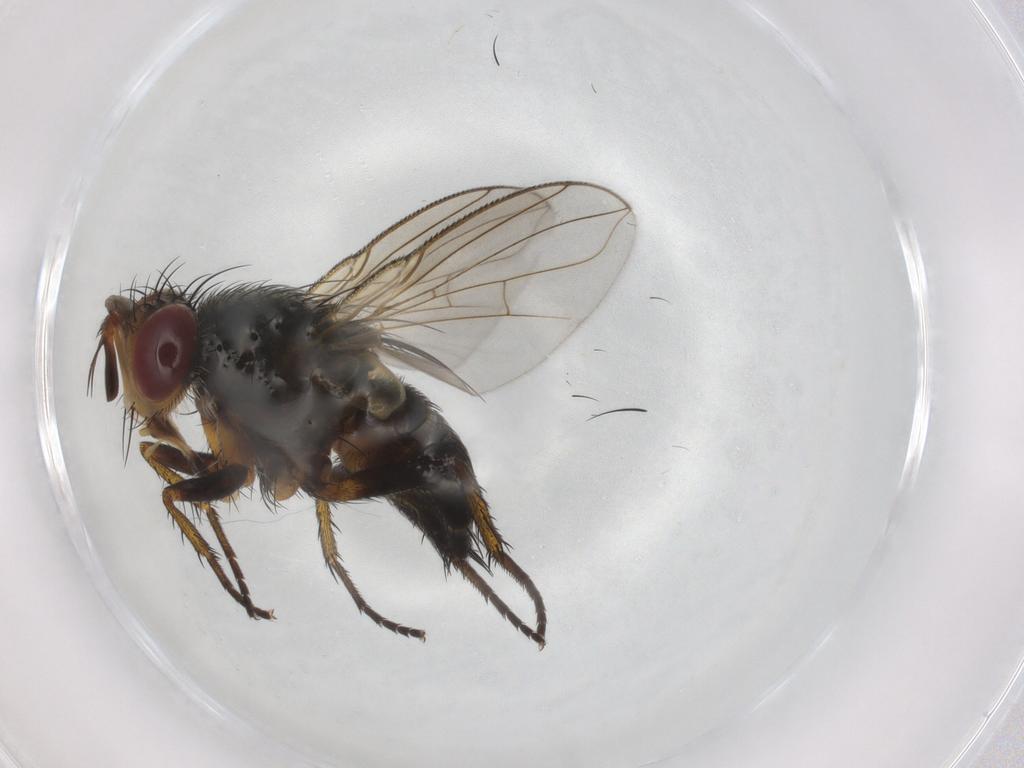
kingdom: Animalia
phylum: Arthropoda
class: Insecta
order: Diptera
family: Tachinidae
